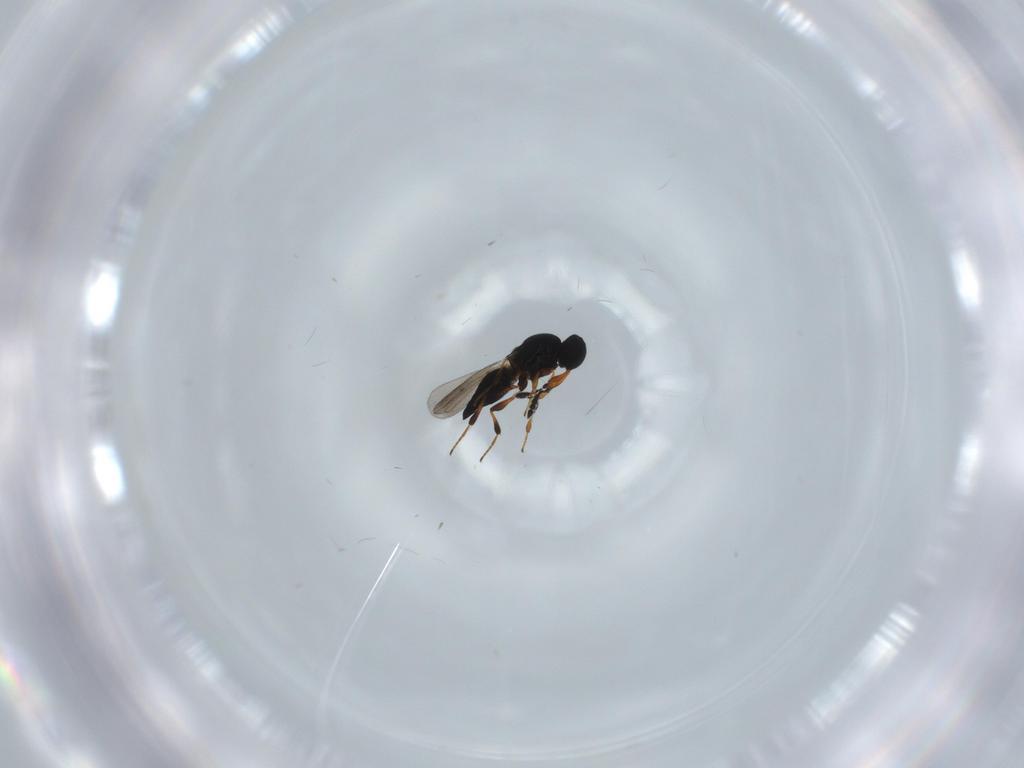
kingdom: Animalia
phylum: Arthropoda
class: Insecta
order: Hymenoptera
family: Platygastridae
